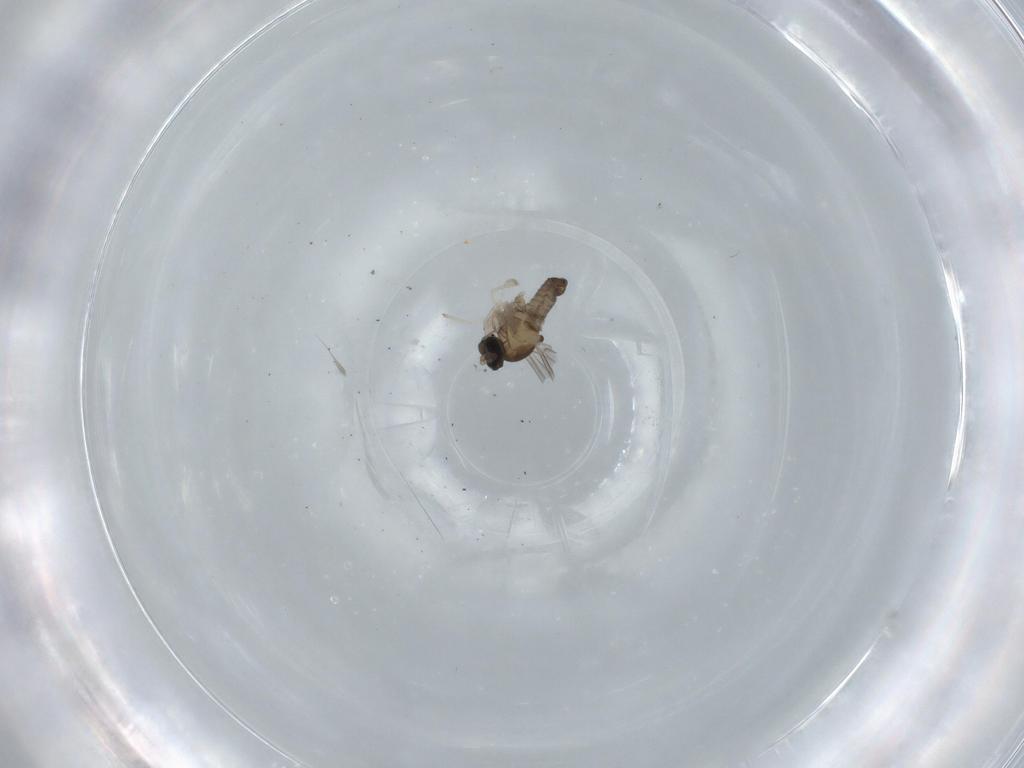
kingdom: Animalia
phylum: Arthropoda
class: Insecta
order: Diptera
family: Cecidomyiidae
